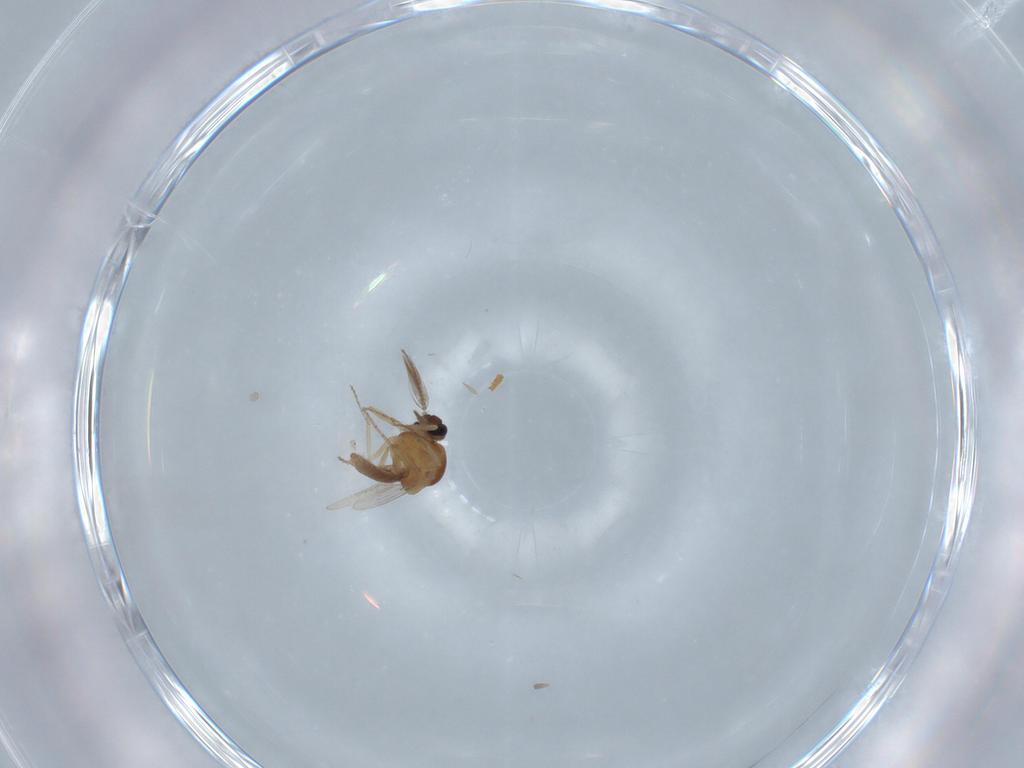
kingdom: Animalia
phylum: Arthropoda
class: Insecta
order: Diptera
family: Ceratopogonidae
